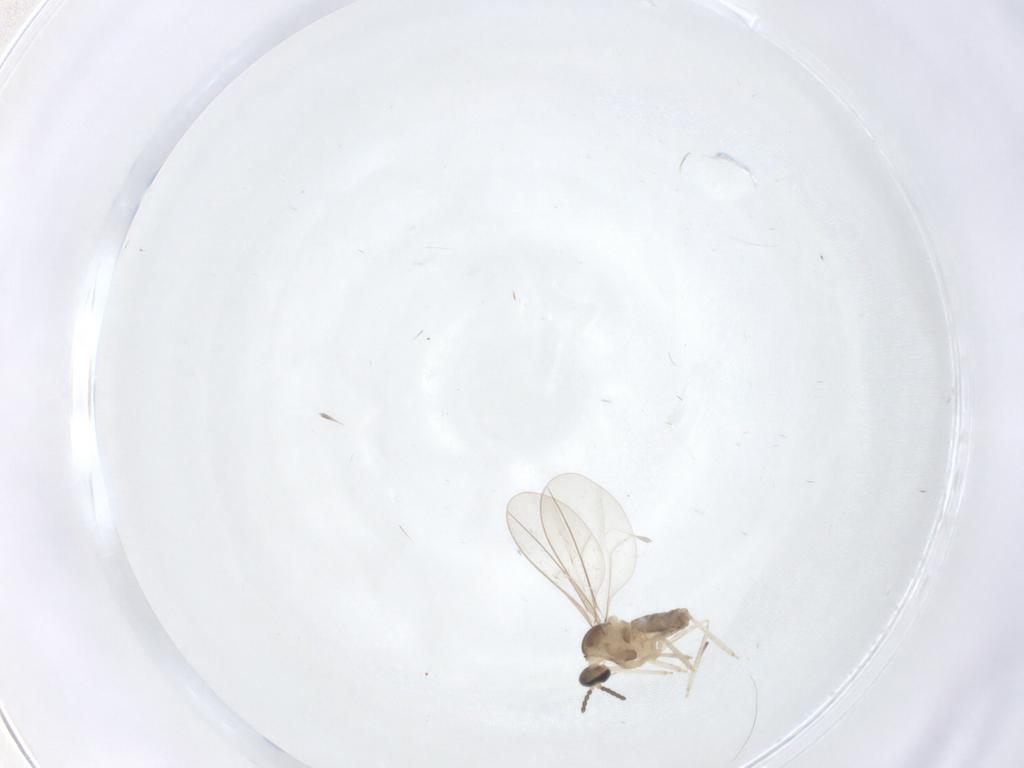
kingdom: Animalia
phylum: Arthropoda
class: Insecta
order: Diptera
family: Cecidomyiidae
